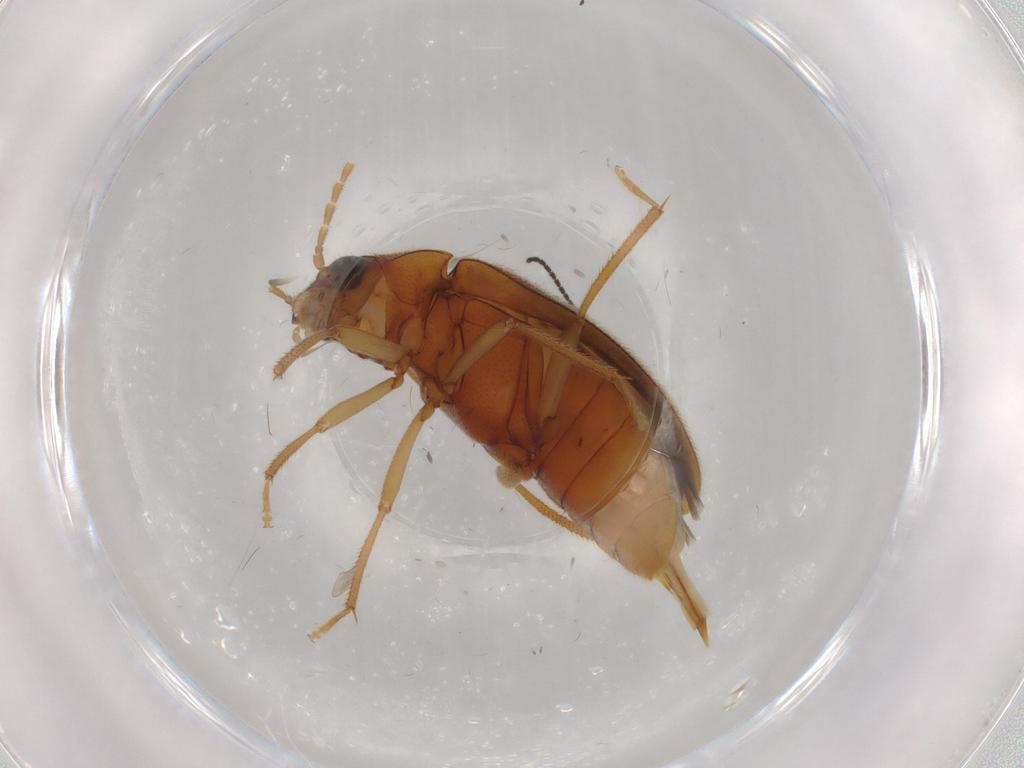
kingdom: Animalia
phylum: Arthropoda
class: Insecta
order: Coleoptera
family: Ptilodactylidae
